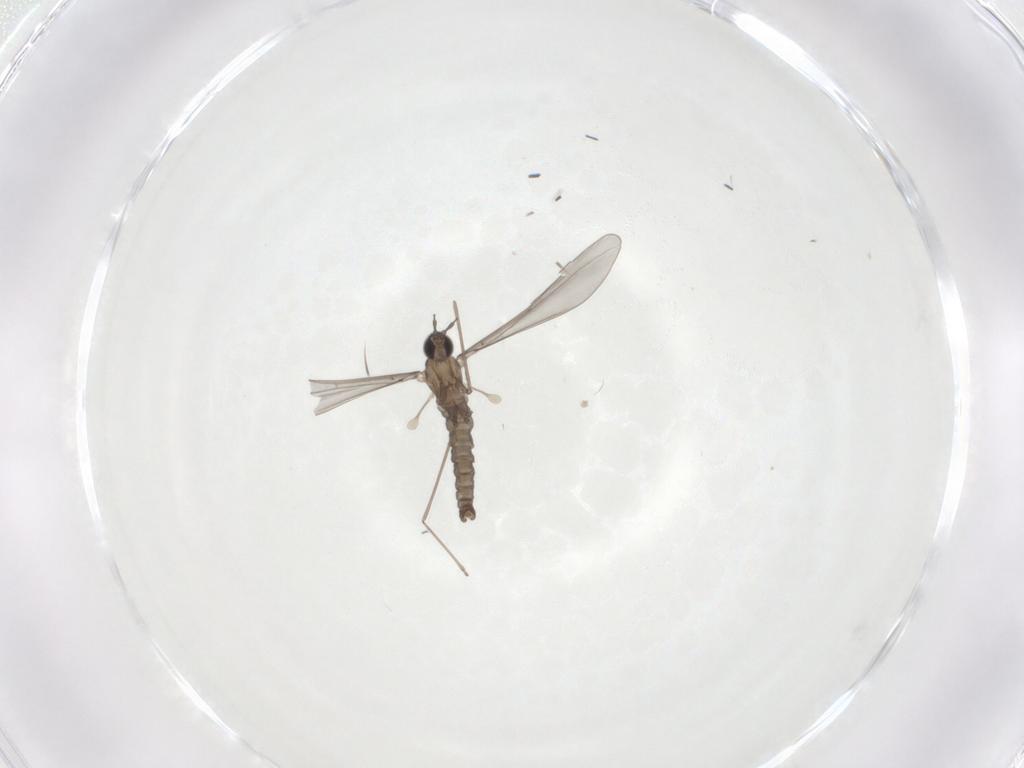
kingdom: Animalia
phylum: Arthropoda
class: Insecta
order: Diptera
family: Cecidomyiidae
